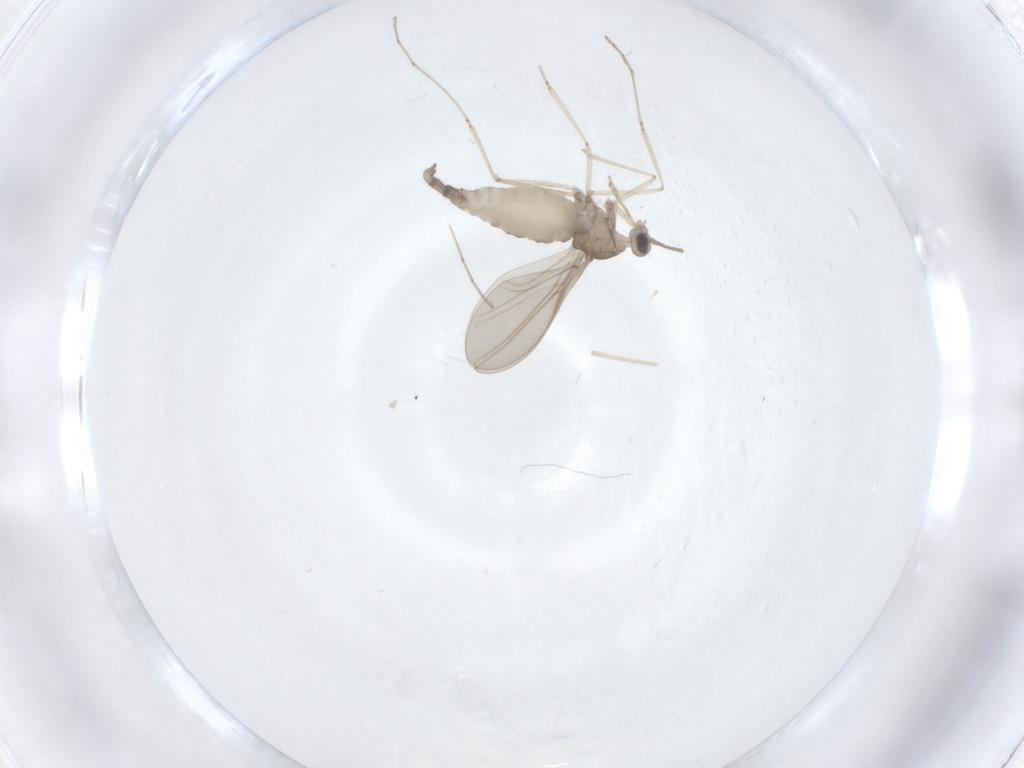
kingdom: Animalia
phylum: Arthropoda
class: Insecta
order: Diptera
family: Cecidomyiidae
